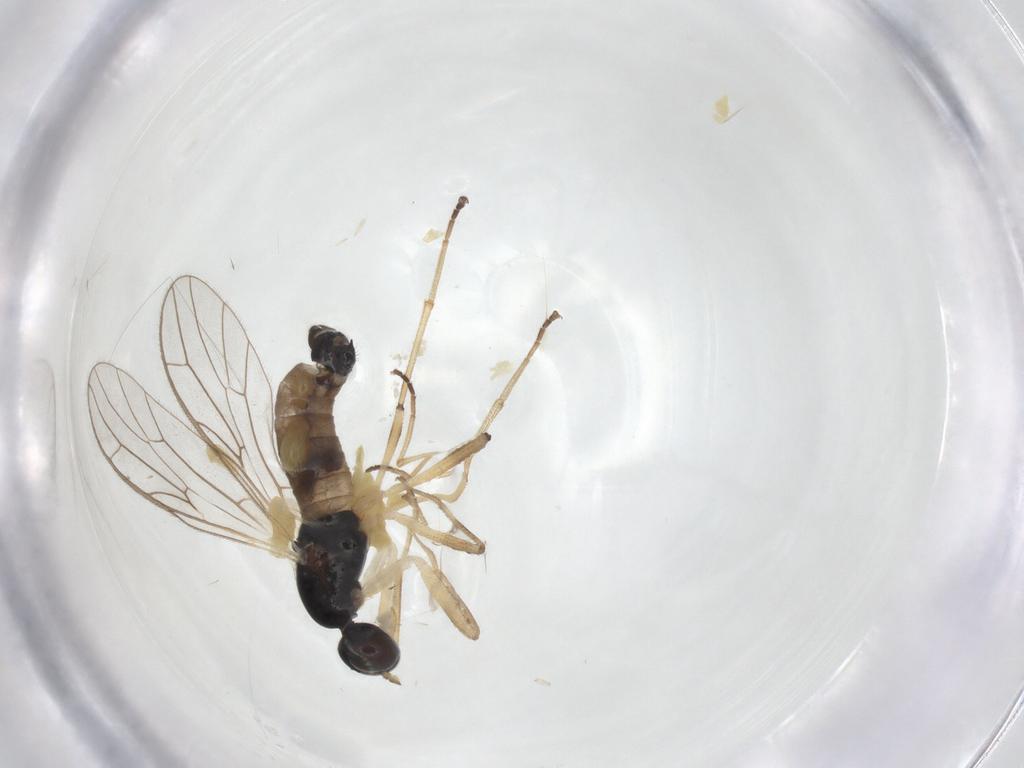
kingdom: Animalia
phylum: Arthropoda
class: Insecta
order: Diptera
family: Empididae
